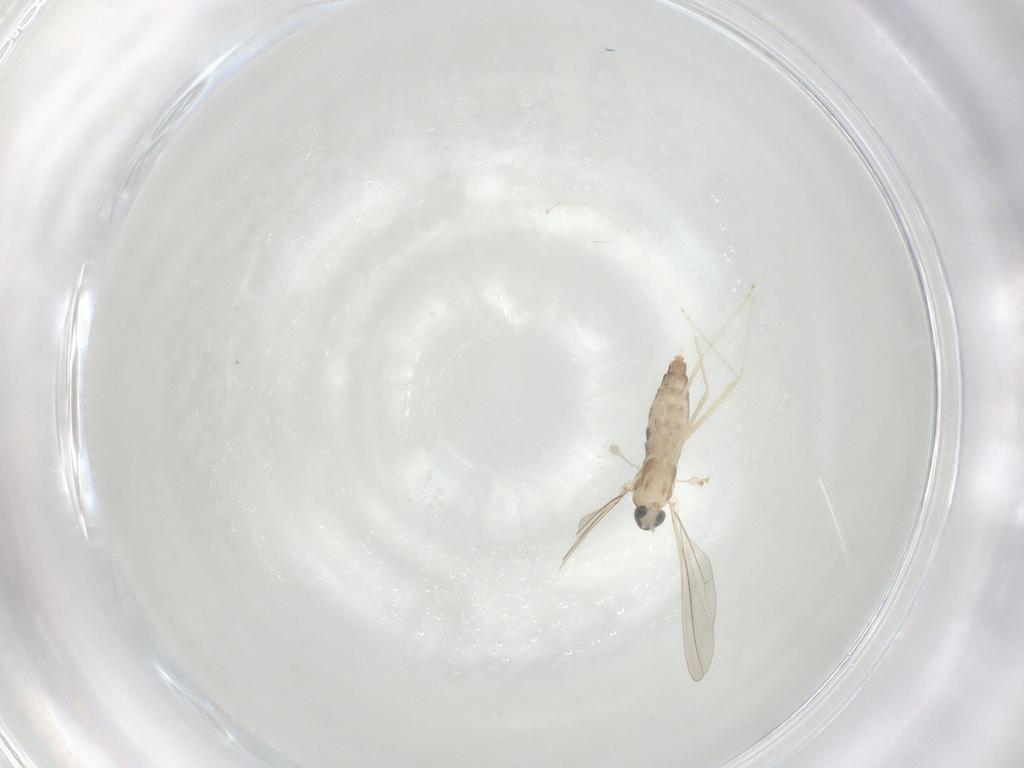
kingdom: Animalia
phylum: Arthropoda
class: Insecta
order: Diptera
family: Cecidomyiidae
